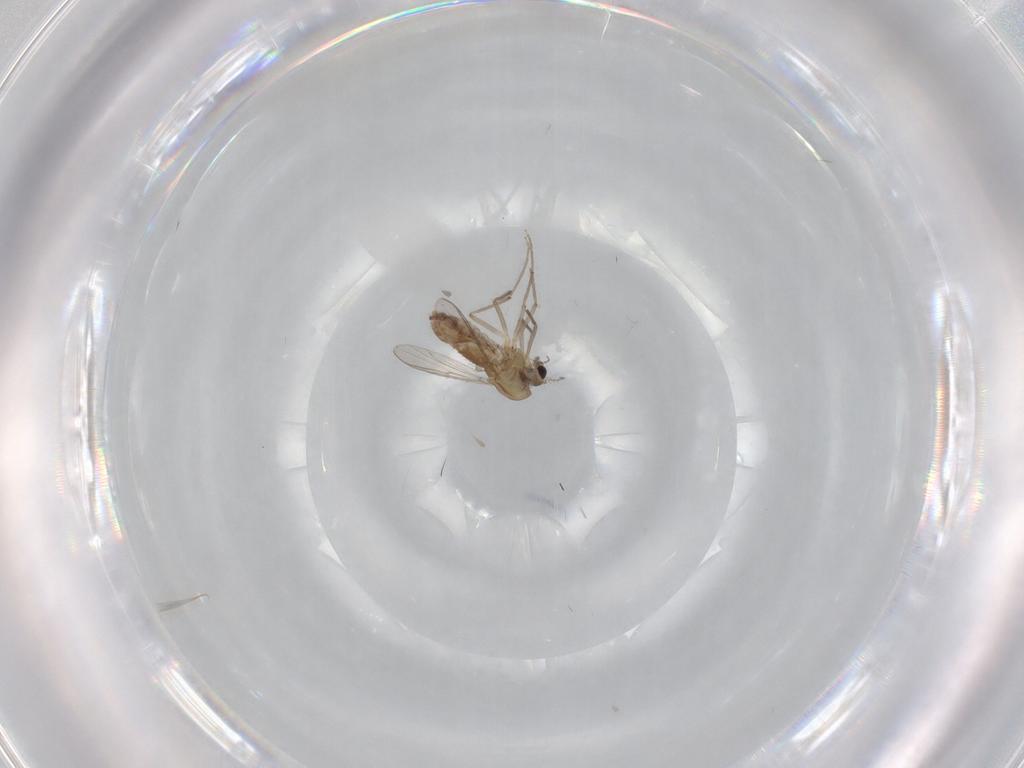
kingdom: Animalia
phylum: Arthropoda
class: Insecta
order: Diptera
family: Chironomidae
